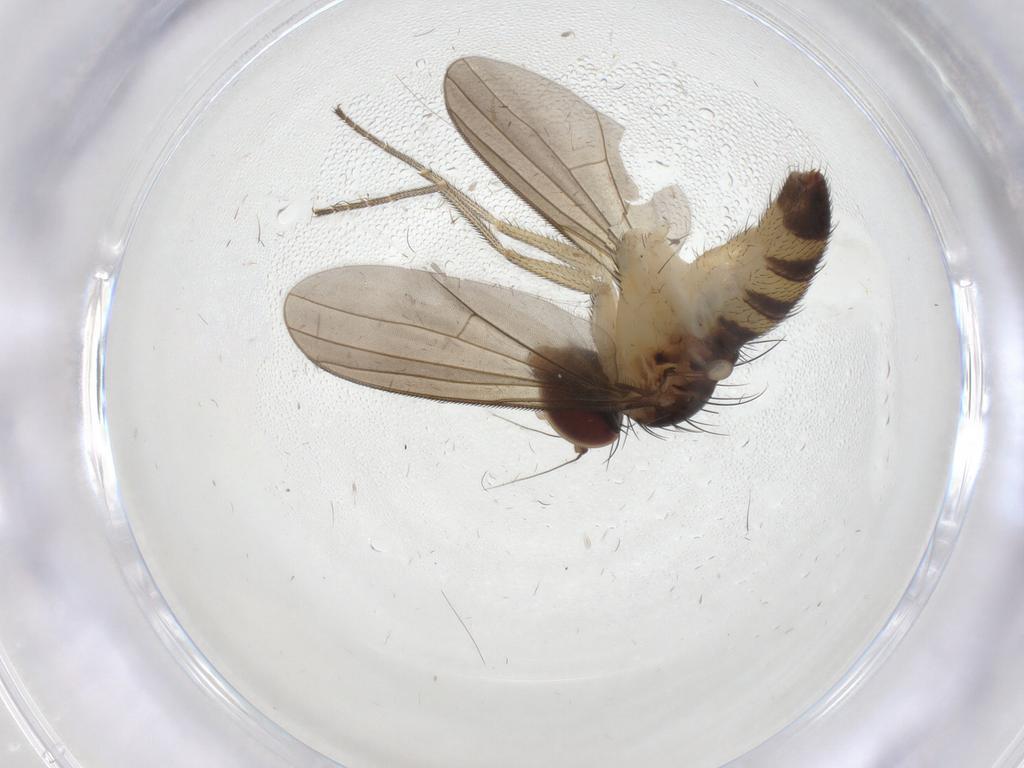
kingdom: Animalia
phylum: Arthropoda
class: Insecta
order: Diptera
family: Dolichopodidae
